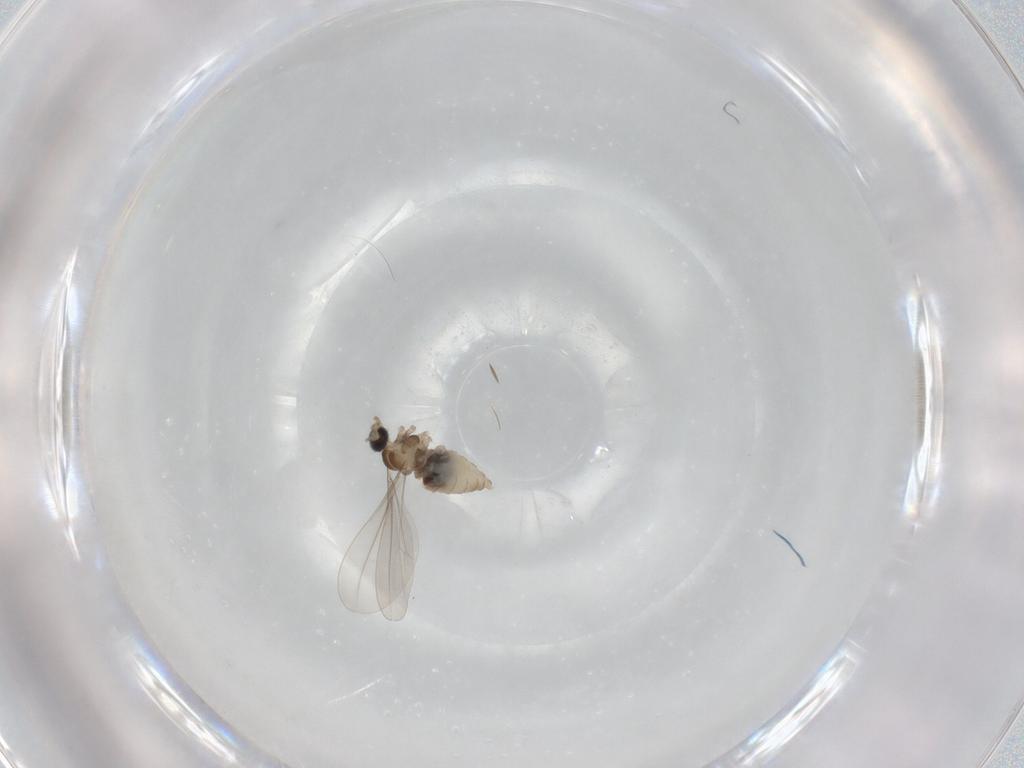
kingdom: Animalia
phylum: Arthropoda
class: Insecta
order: Diptera
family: Cecidomyiidae
